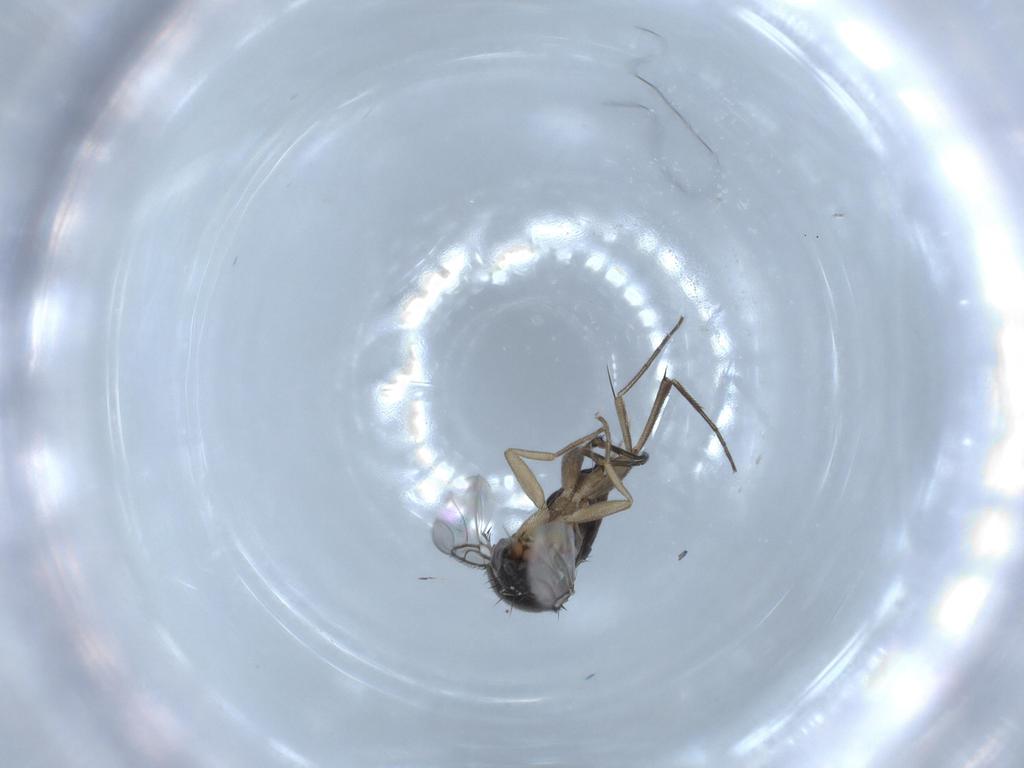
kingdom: Animalia
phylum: Arthropoda
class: Insecta
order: Diptera
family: Phoridae
